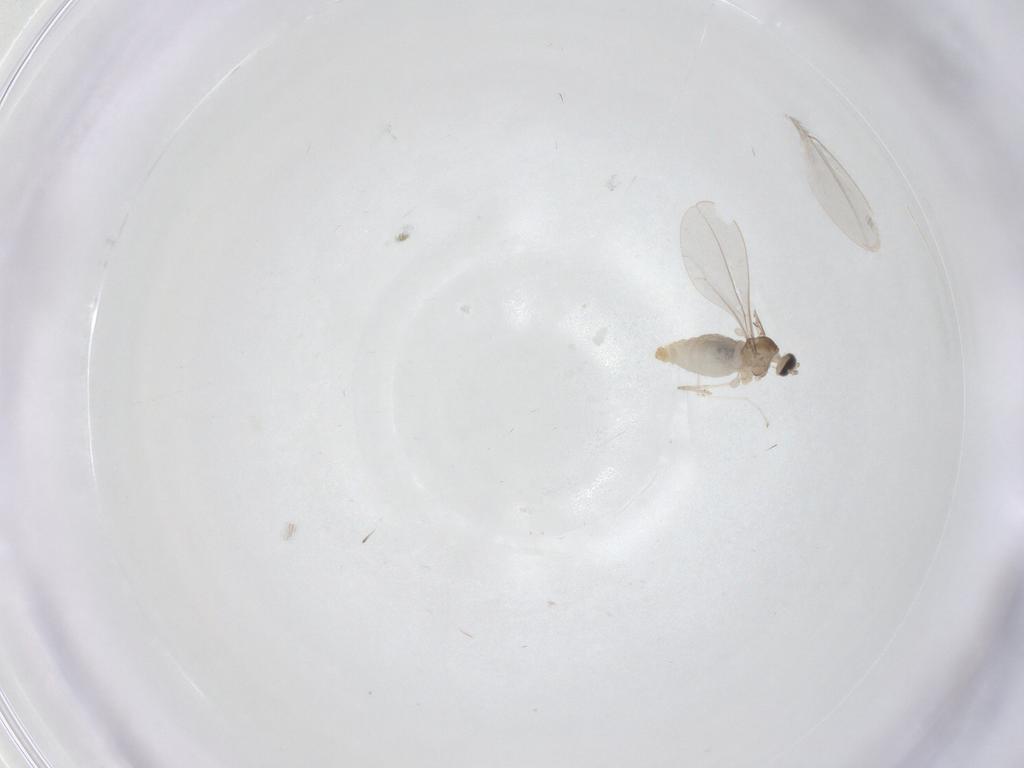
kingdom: Animalia
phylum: Arthropoda
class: Insecta
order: Diptera
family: Cecidomyiidae
